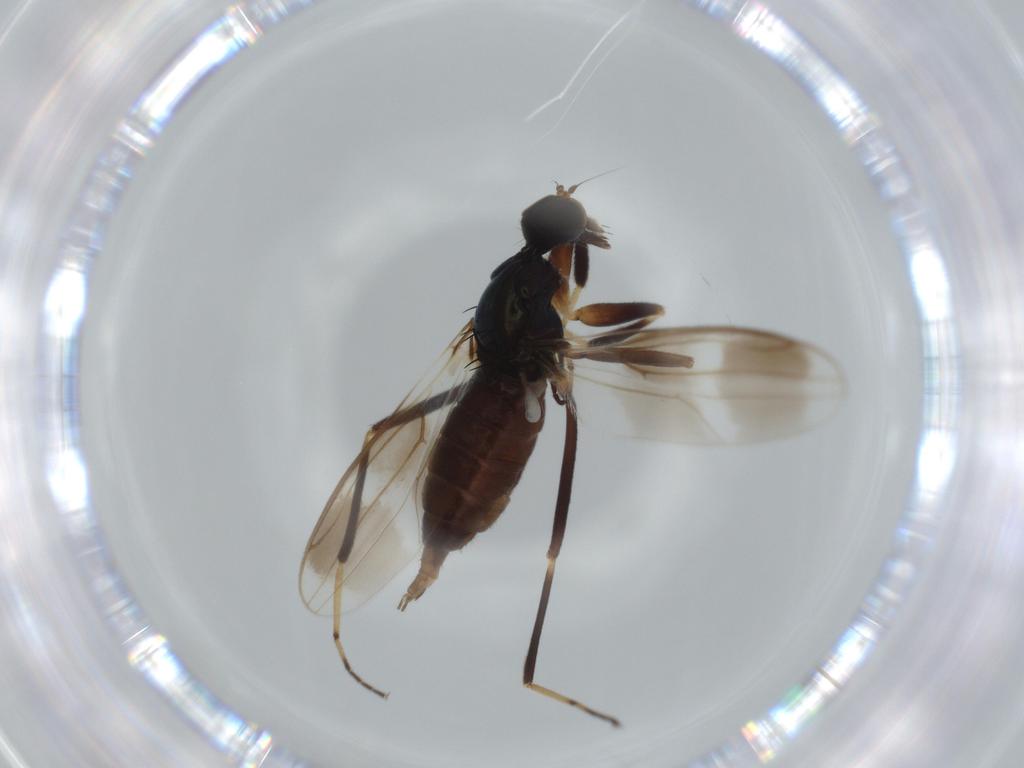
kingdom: Animalia
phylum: Arthropoda
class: Insecta
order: Diptera
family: Hybotidae
